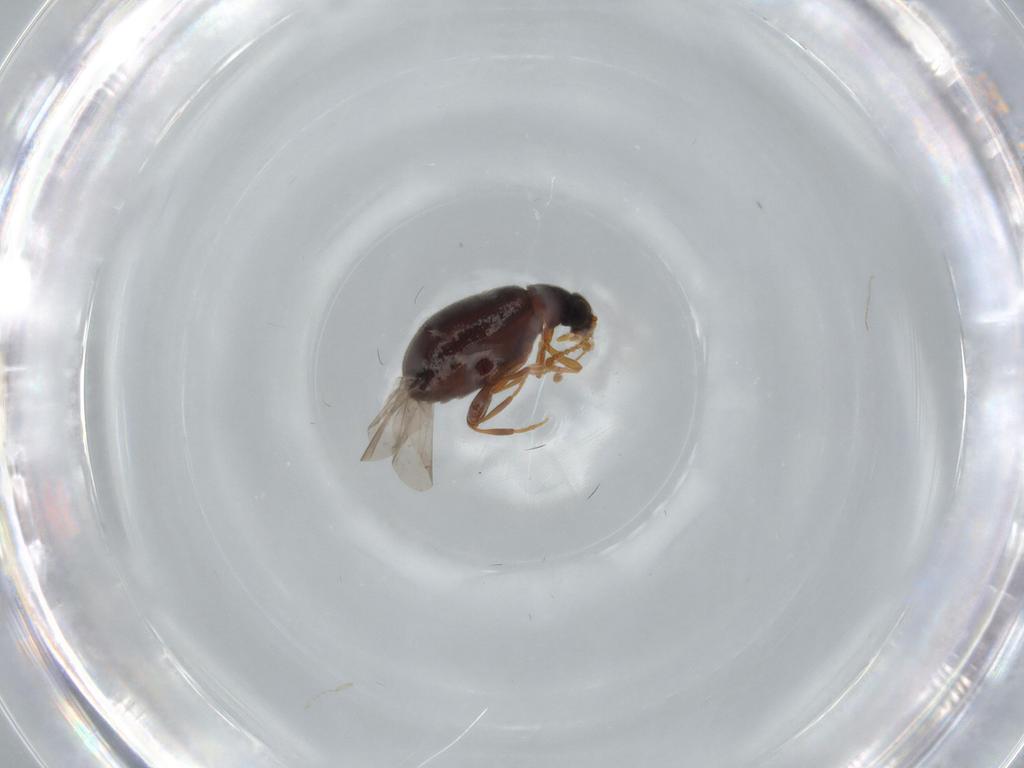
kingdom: Animalia
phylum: Arthropoda
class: Insecta
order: Coleoptera
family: Aderidae
